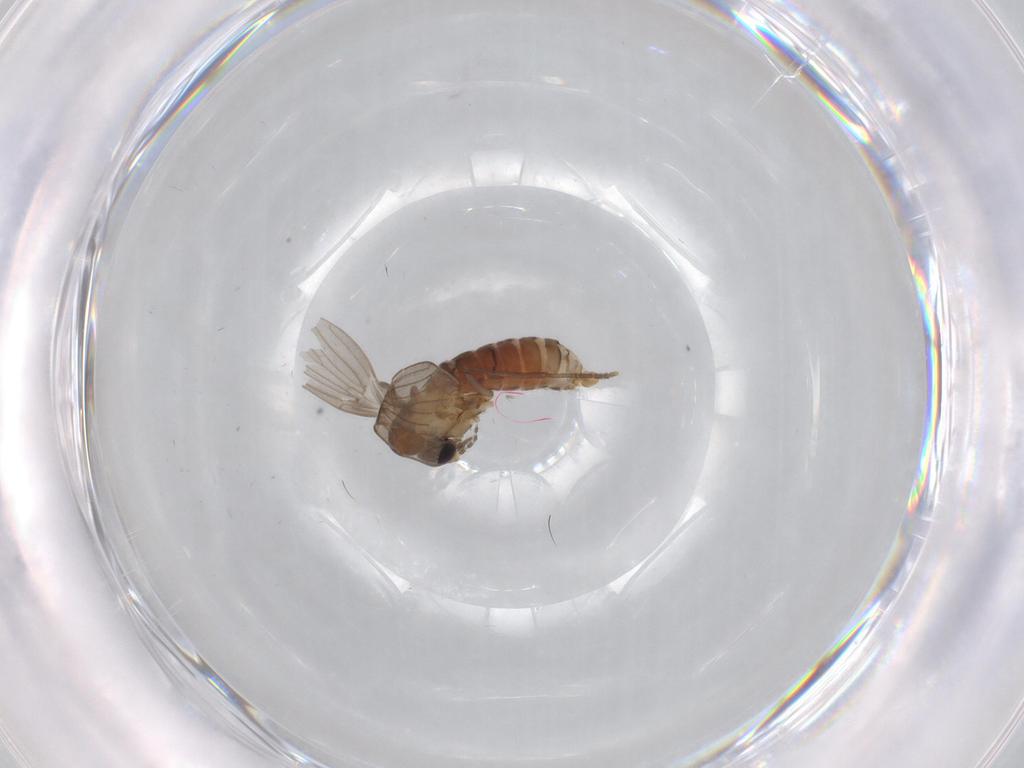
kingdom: Animalia
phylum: Arthropoda
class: Insecta
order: Diptera
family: Psychodidae
